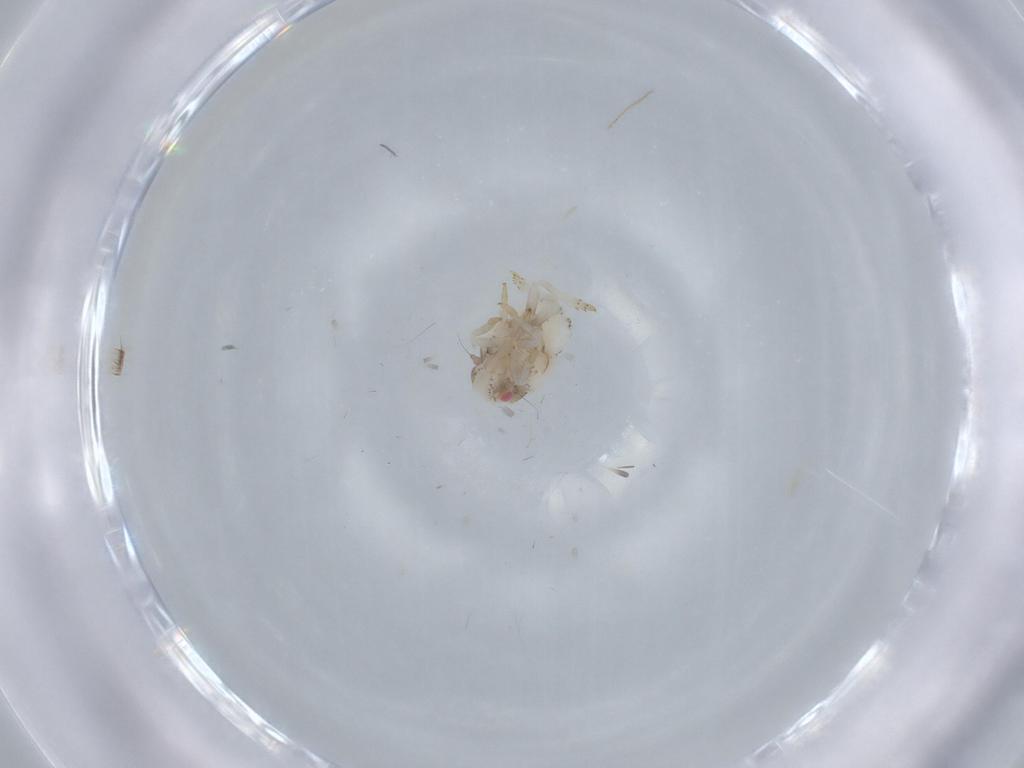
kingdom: Animalia
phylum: Arthropoda
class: Insecta
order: Hemiptera
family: Acanaloniidae
